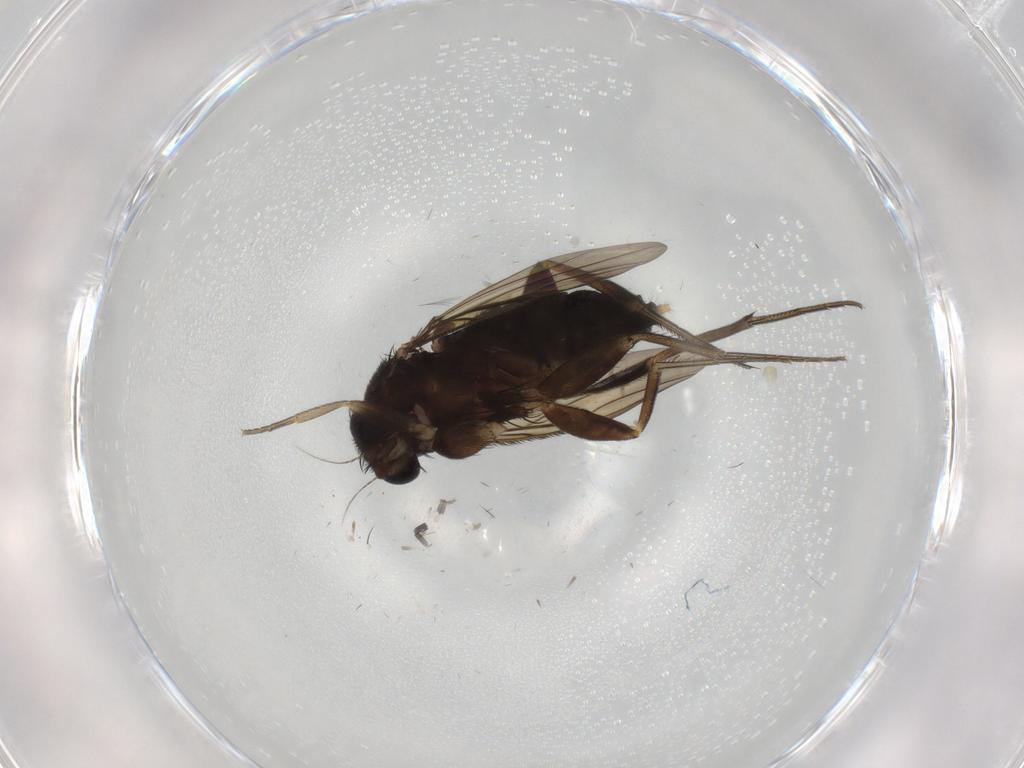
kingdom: Animalia
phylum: Arthropoda
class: Insecta
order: Diptera
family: Phoridae
